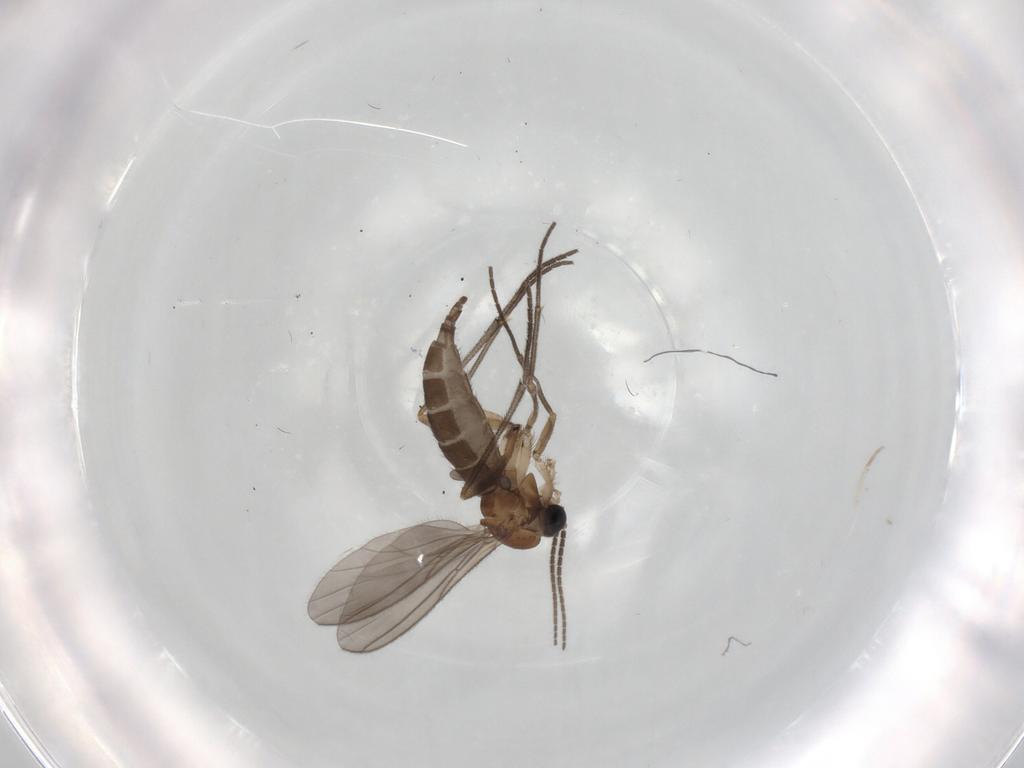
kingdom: Animalia
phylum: Arthropoda
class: Insecta
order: Diptera
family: Sciaridae
